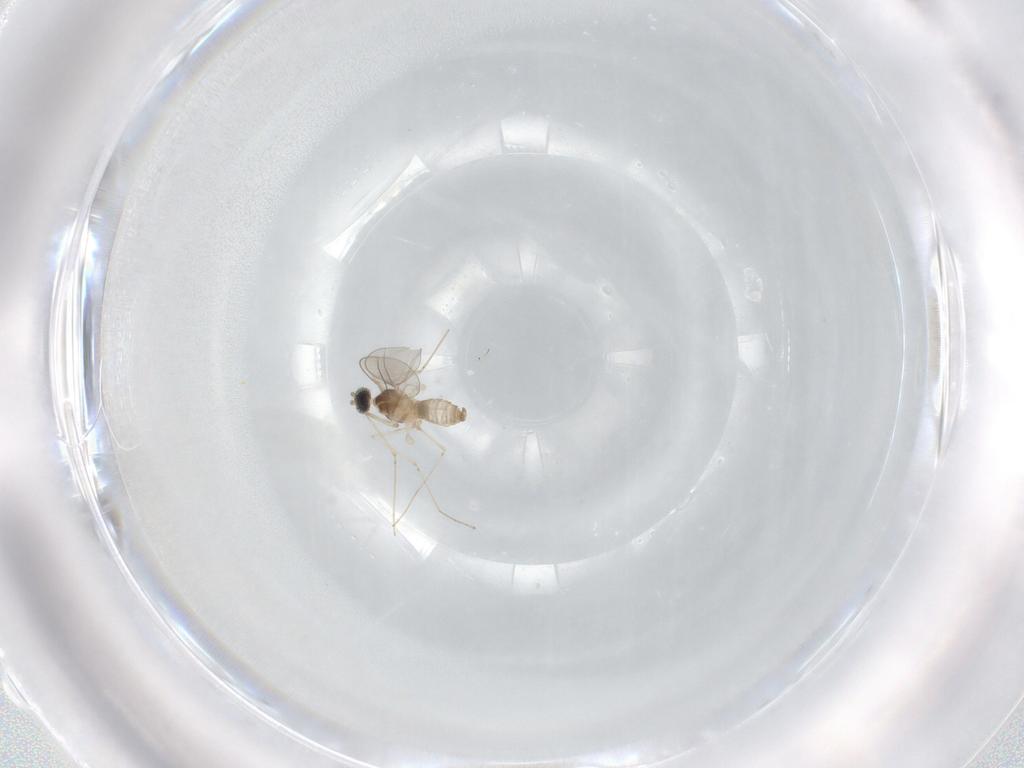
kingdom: Animalia
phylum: Arthropoda
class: Insecta
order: Diptera
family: Cecidomyiidae
